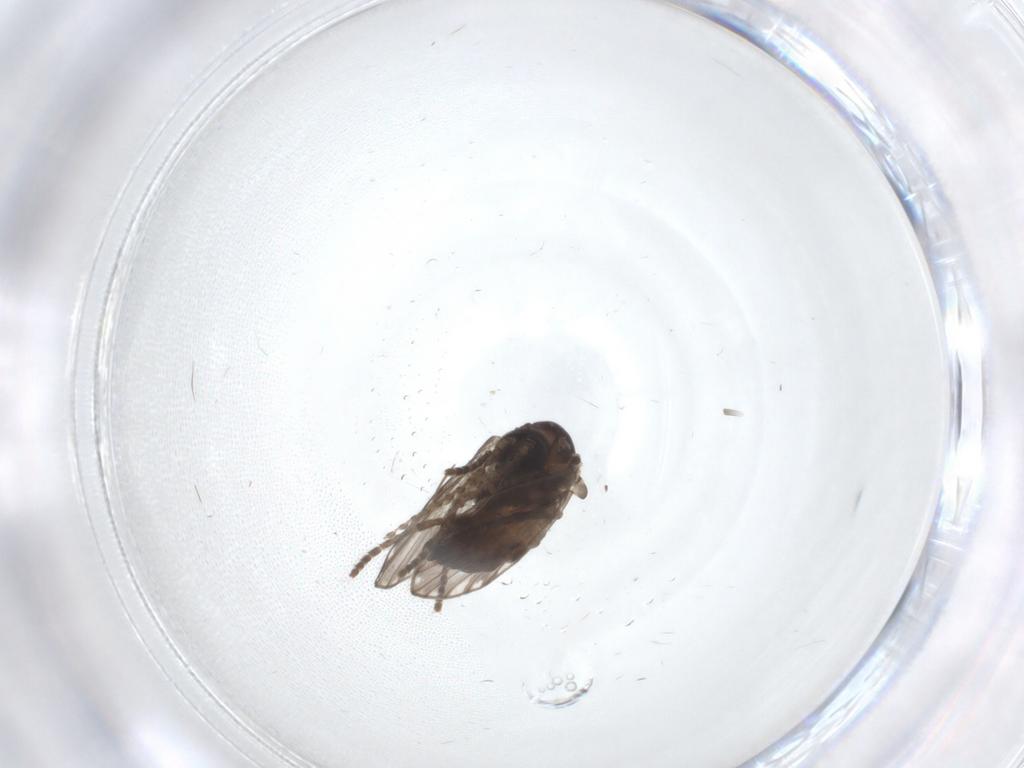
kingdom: Animalia
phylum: Arthropoda
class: Insecta
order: Diptera
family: Psychodidae
